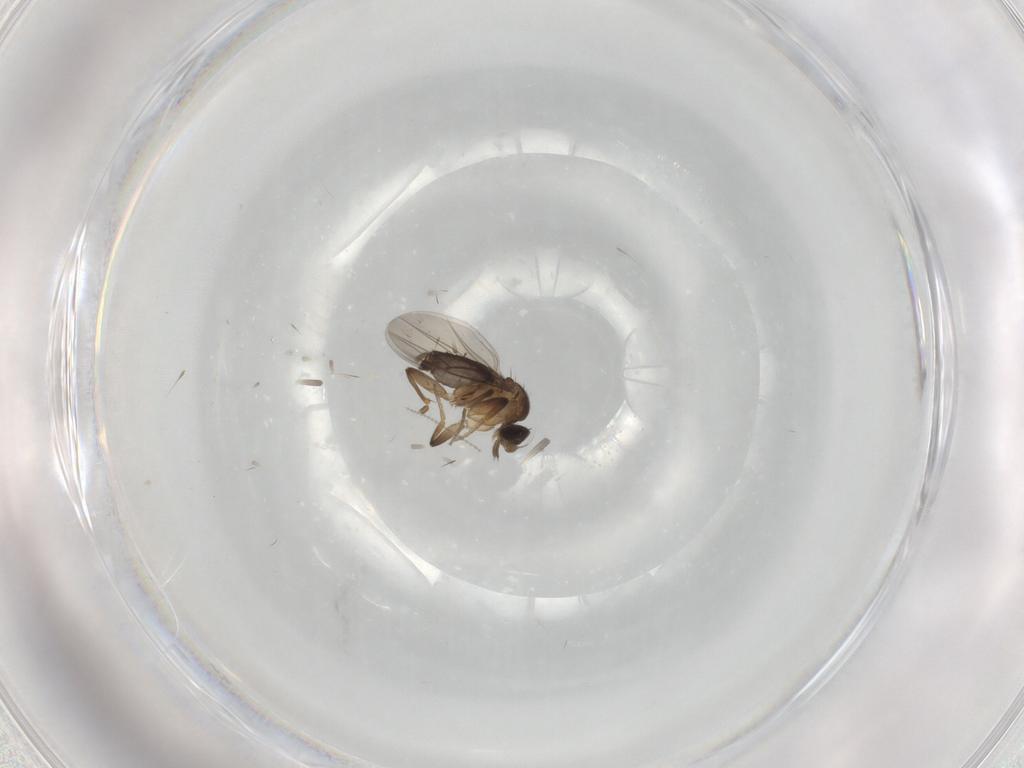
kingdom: Animalia
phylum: Arthropoda
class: Insecta
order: Diptera
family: Phoridae
